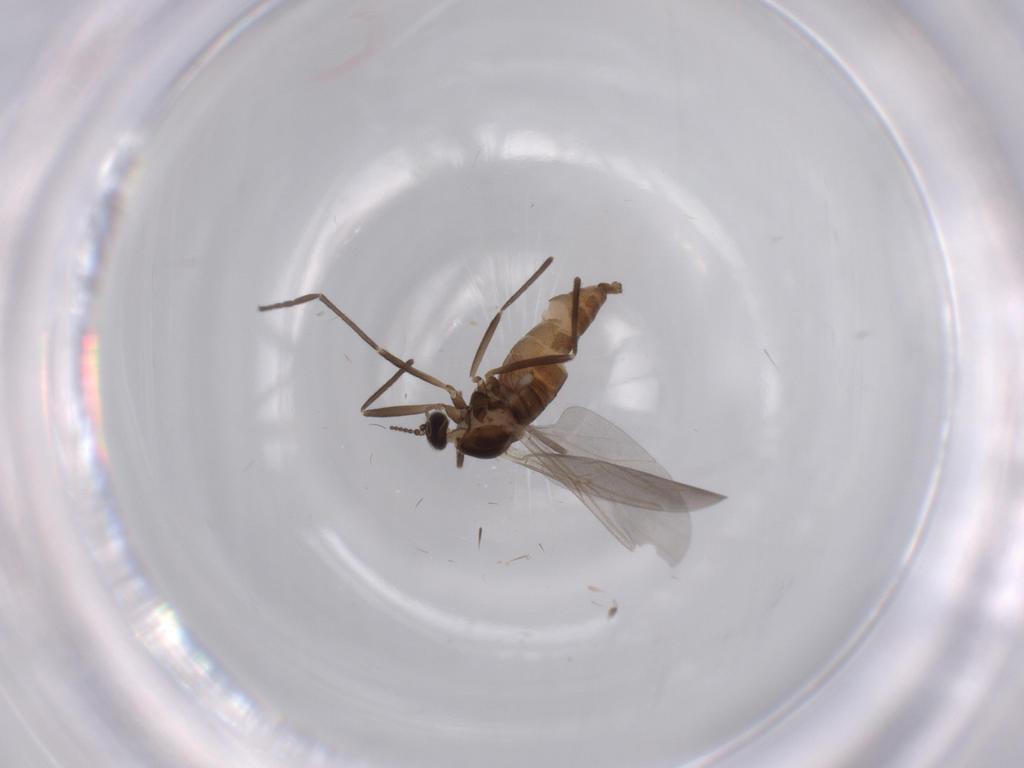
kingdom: Animalia
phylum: Arthropoda
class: Insecta
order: Diptera
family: Cecidomyiidae
